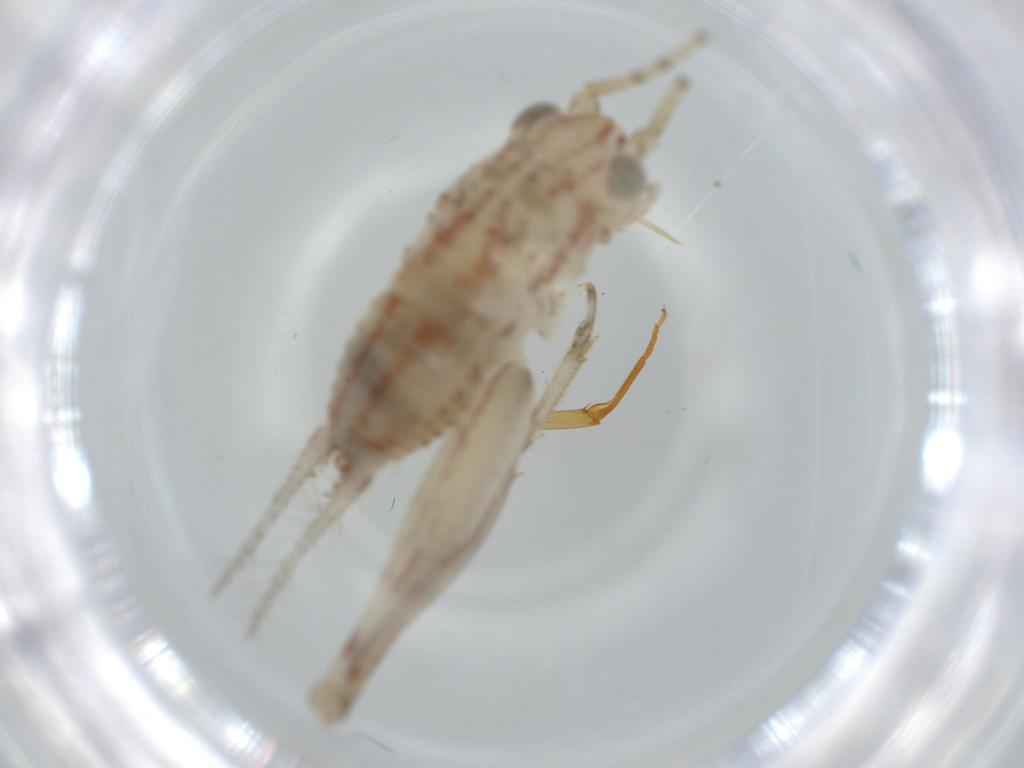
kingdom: Animalia
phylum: Arthropoda
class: Insecta
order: Orthoptera
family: Trigonidiidae
